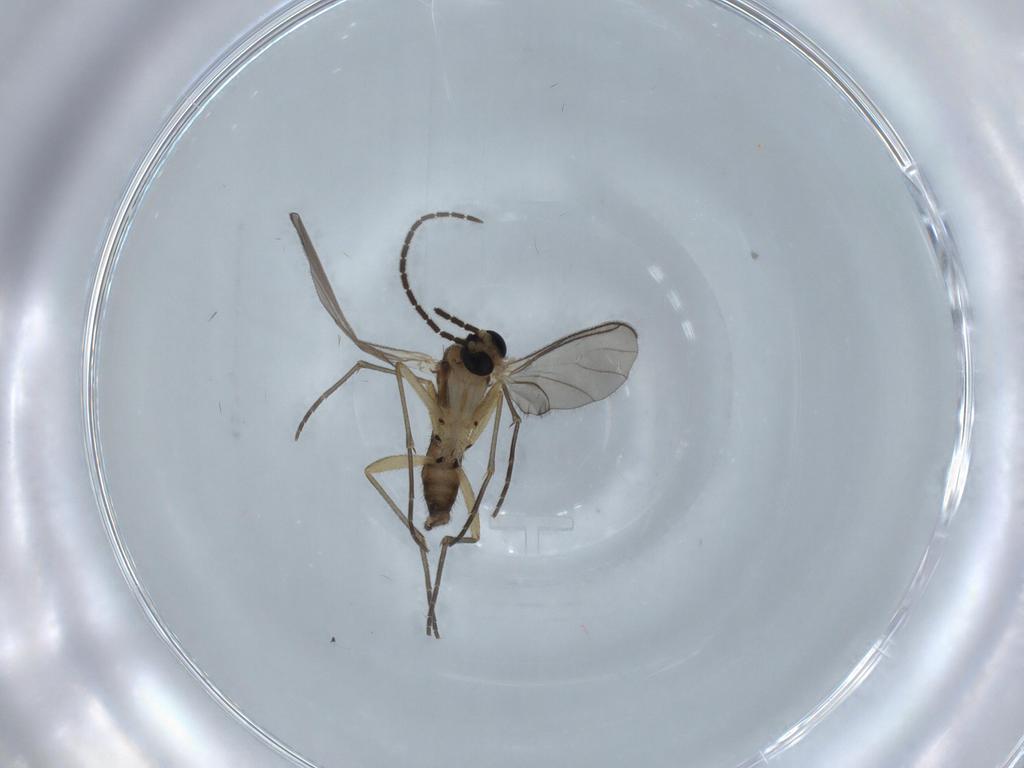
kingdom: Animalia
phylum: Arthropoda
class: Insecta
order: Diptera
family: Sciaridae
